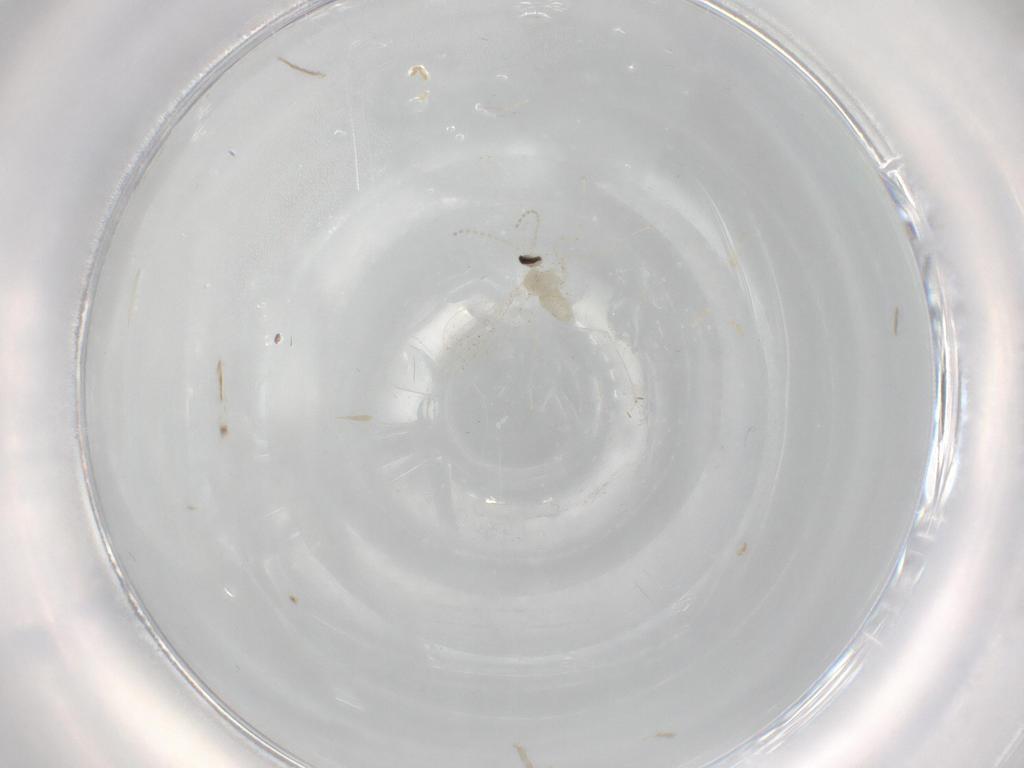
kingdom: Animalia
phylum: Arthropoda
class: Insecta
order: Diptera
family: Cecidomyiidae
